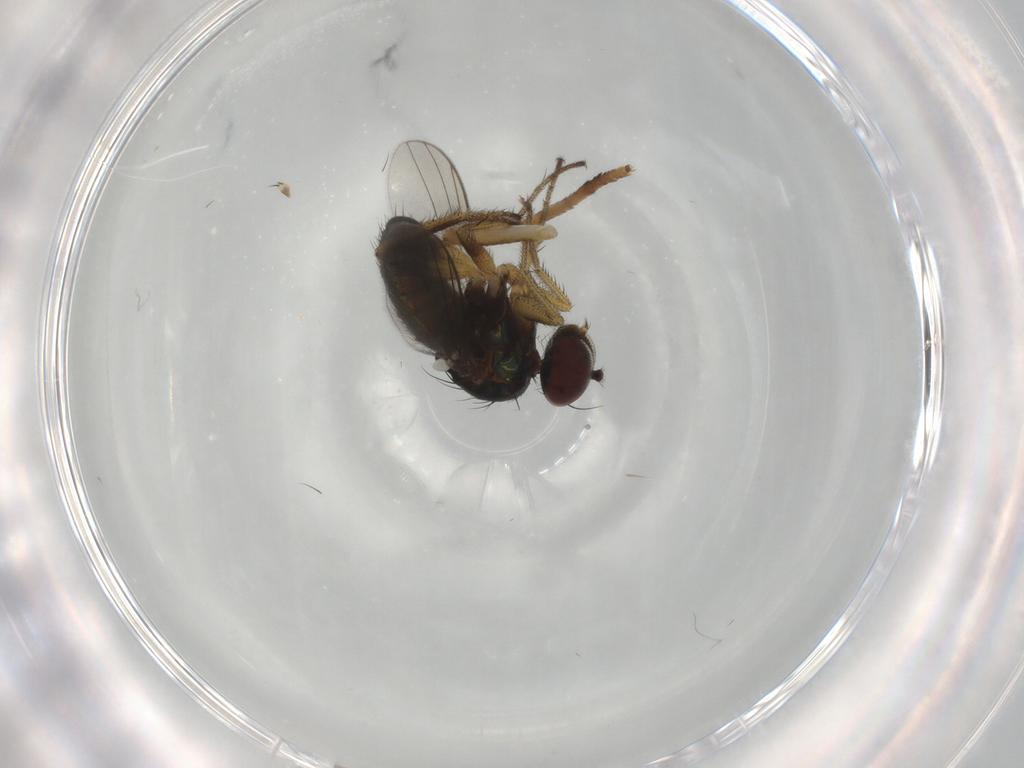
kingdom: Animalia
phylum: Arthropoda
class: Insecta
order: Diptera
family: Dolichopodidae
